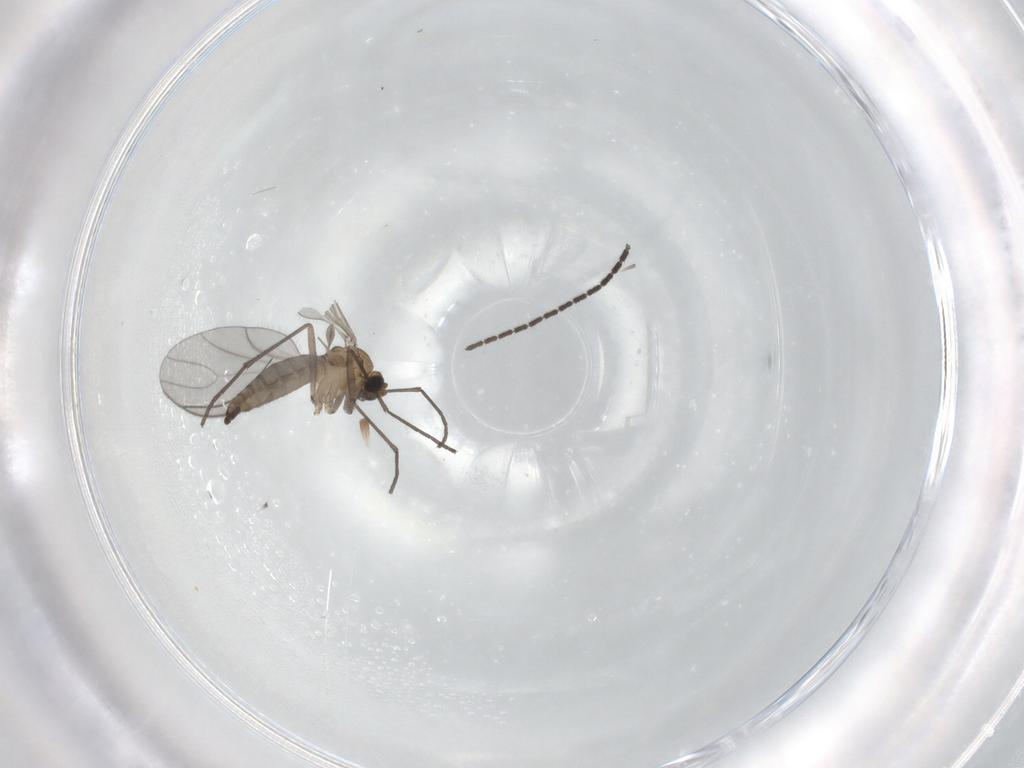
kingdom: Animalia
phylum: Arthropoda
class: Insecta
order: Diptera
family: Sciaridae
